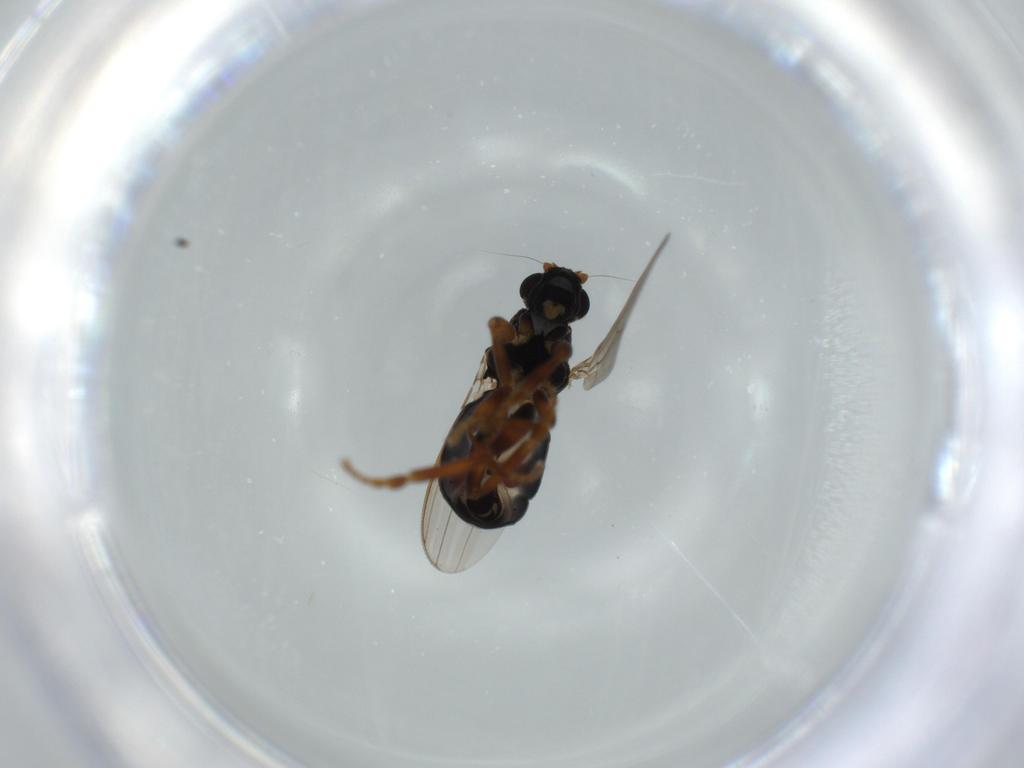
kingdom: Animalia
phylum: Arthropoda
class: Insecta
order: Diptera
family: Sphaeroceridae
